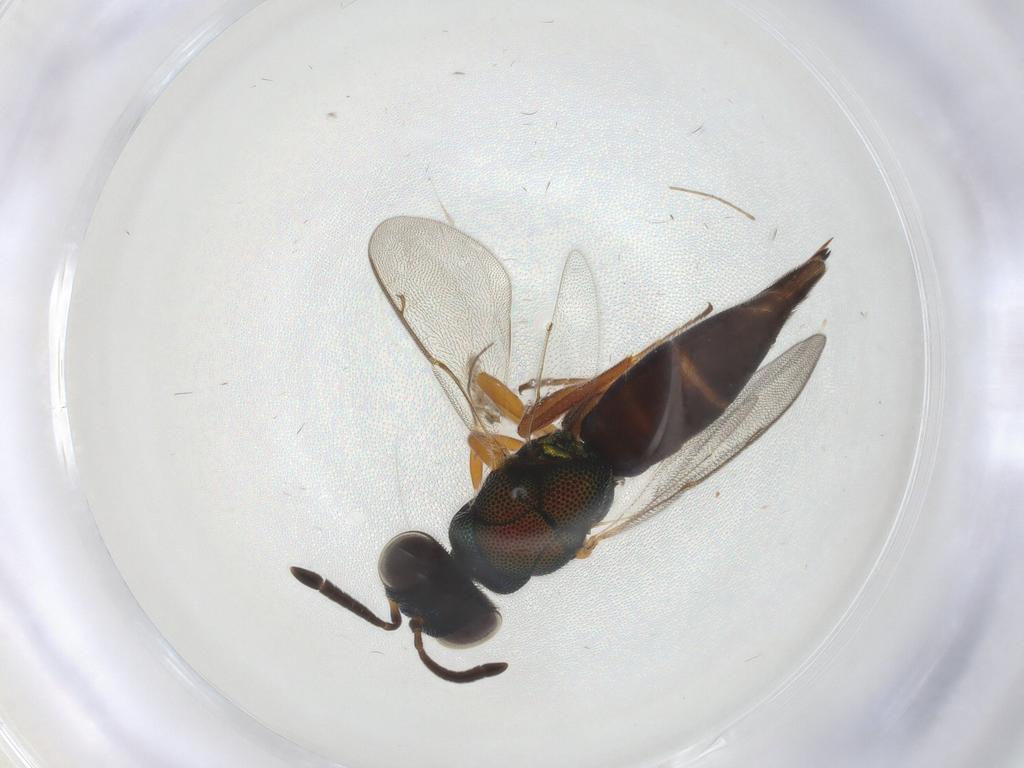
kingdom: Animalia
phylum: Arthropoda
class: Insecta
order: Hymenoptera
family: Lyciscidae
